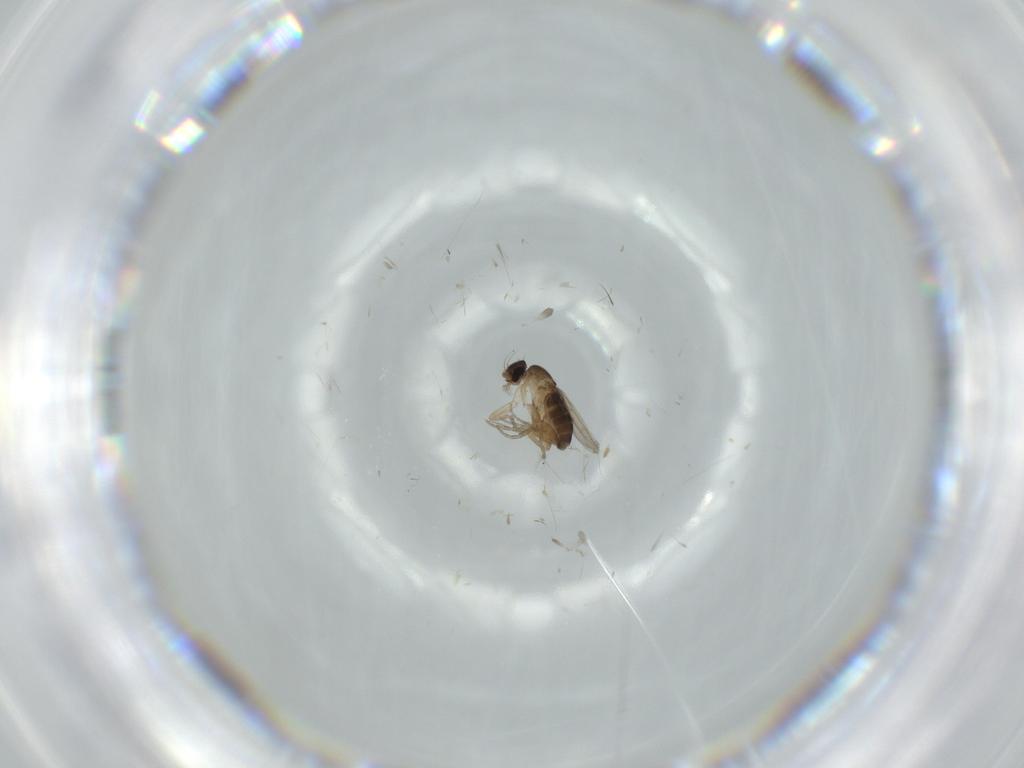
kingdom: Animalia
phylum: Arthropoda
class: Insecta
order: Diptera
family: Phoridae
